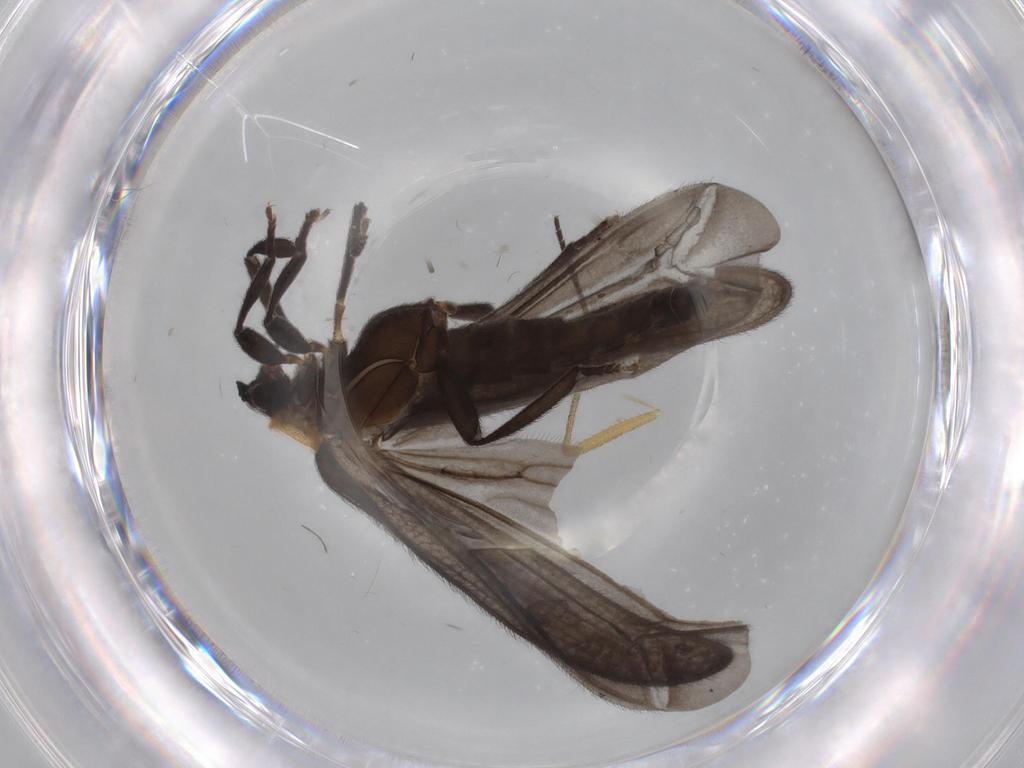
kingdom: Animalia
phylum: Arthropoda
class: Insecta
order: Coleoptera
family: Lycidae
